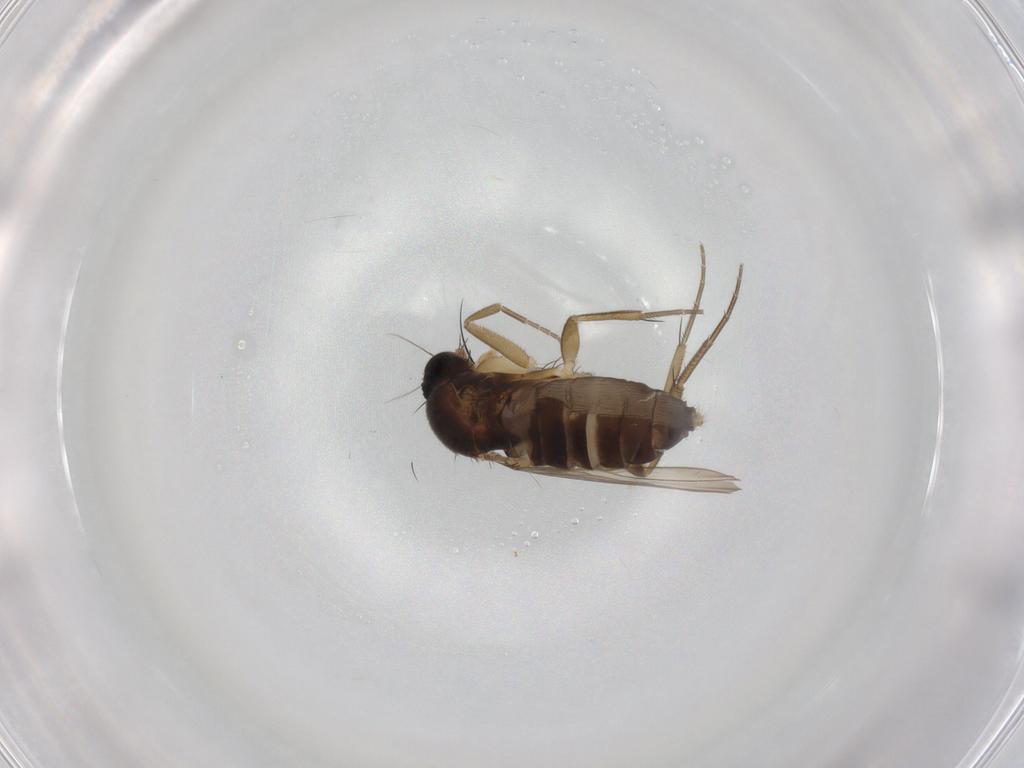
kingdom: Animalia
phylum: Arthropoda
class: Insecta
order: Diptera
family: Phoridae
